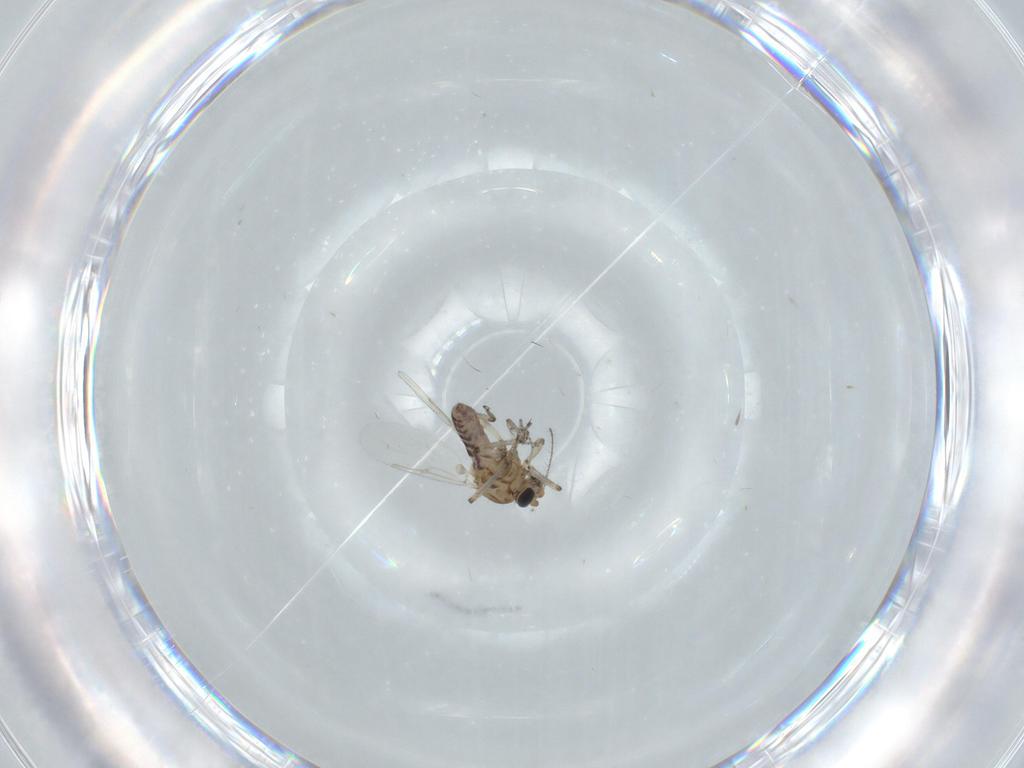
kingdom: Animalia
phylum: Arthropoda
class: Insecta
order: Diptera
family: Ceratopogonidae
